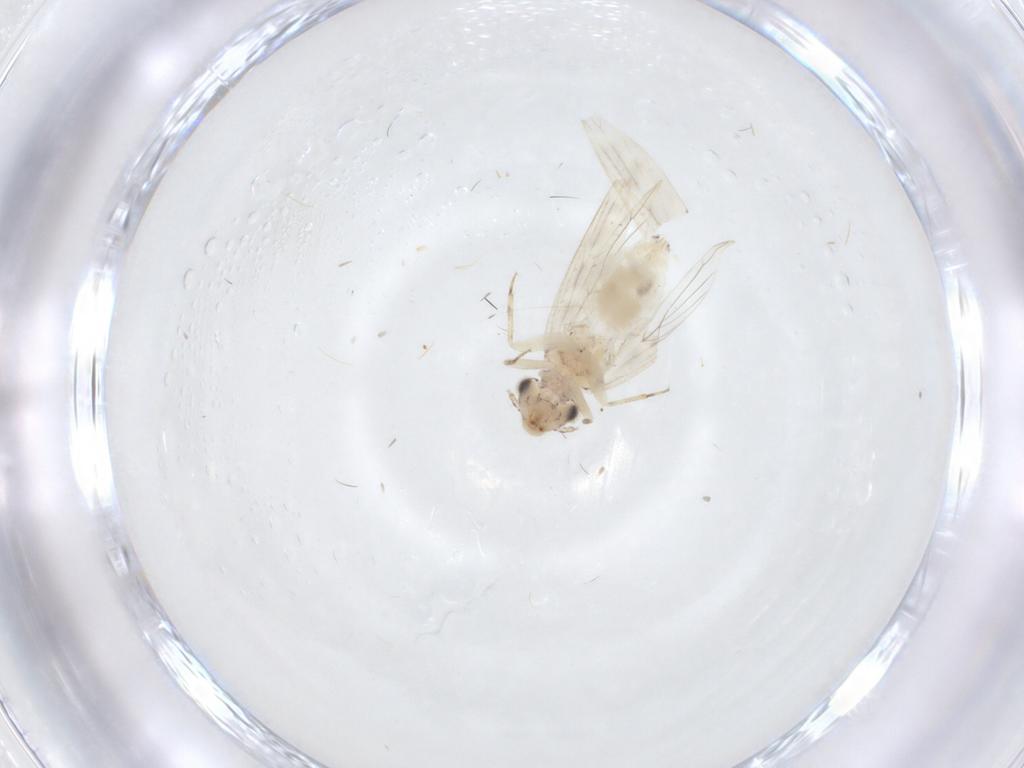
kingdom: Animalia
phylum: Arthropoda
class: Insecta
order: Psocodea
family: Lepidopsocidae
